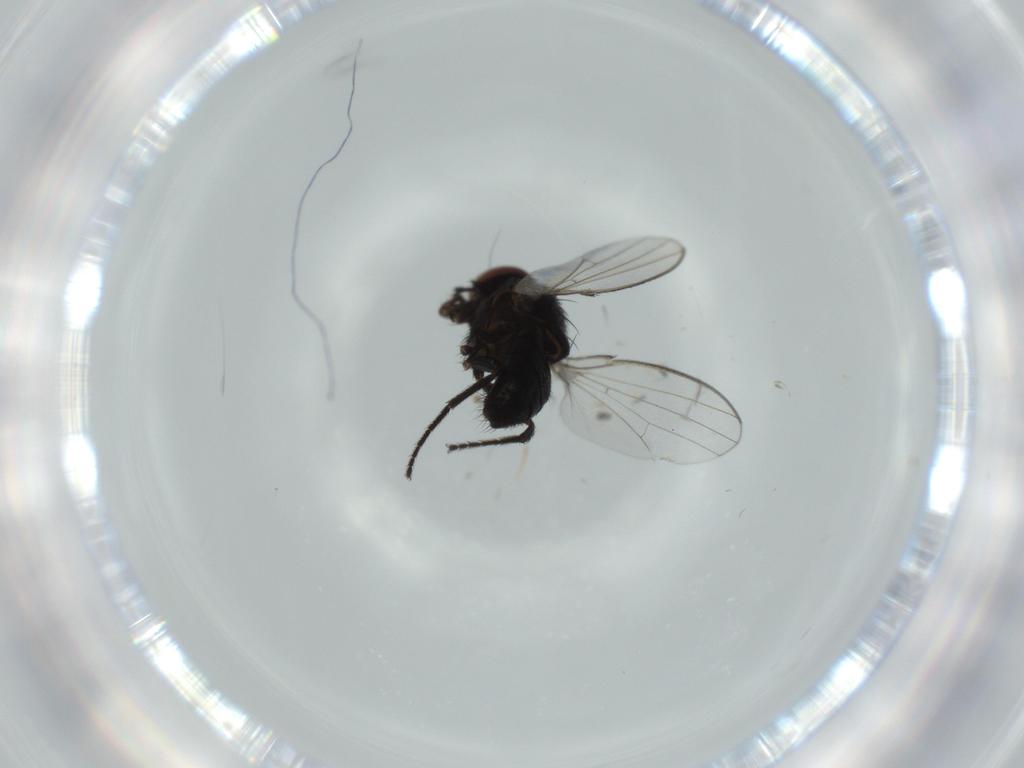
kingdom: Animalia
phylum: Arthropoda
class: Insecta
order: Diptera
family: Milichiidae
